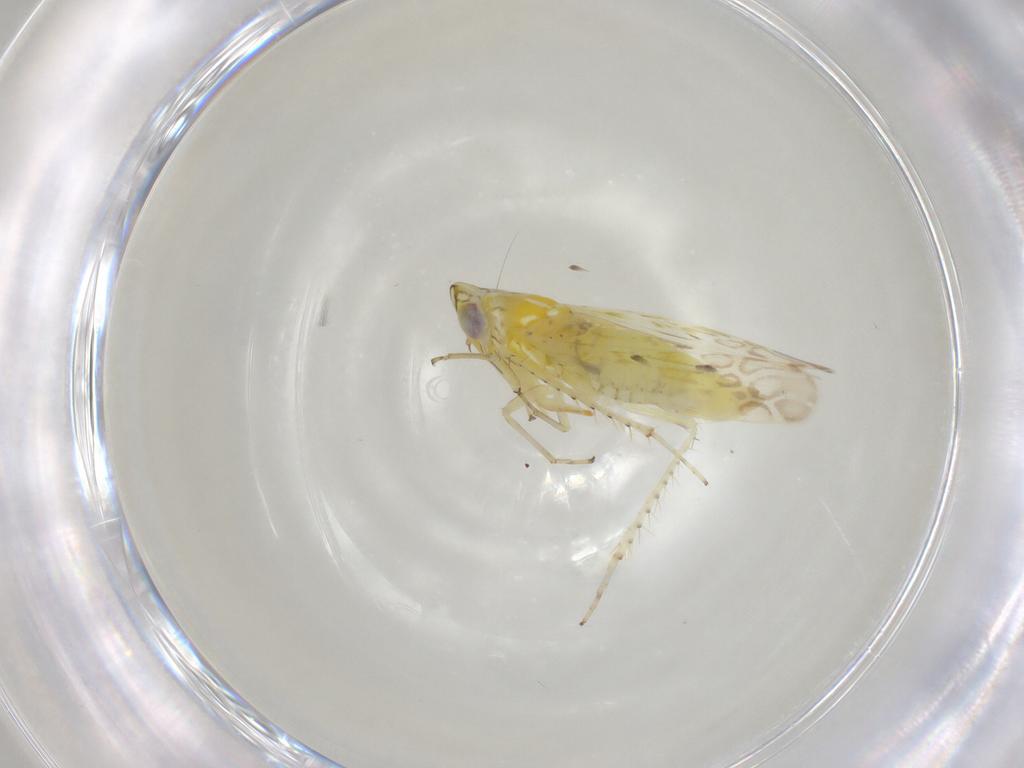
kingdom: Animalia
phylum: Arthropoda
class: Insecta
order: Hemiptera
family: Cicadellidae
